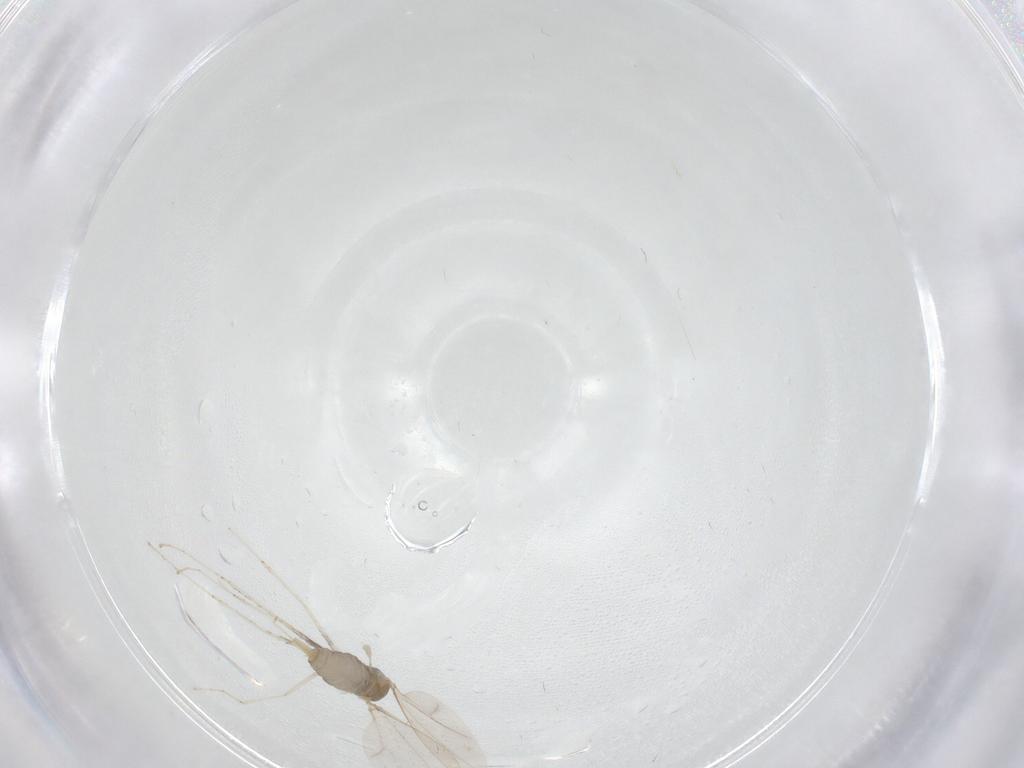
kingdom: Animalia
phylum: Arthropoda
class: Insecta
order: Diptera
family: Cecidomyiidae
